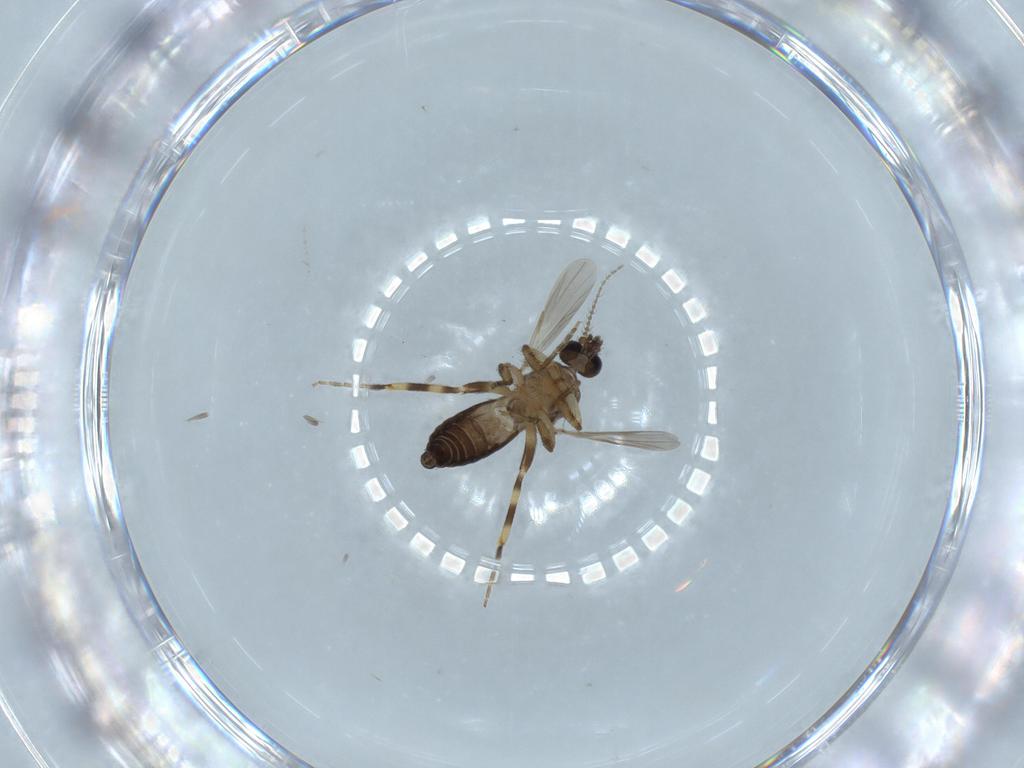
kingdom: Animalia
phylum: Arthropoda
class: Insecta
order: Diptera
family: Ceratopogonidae
